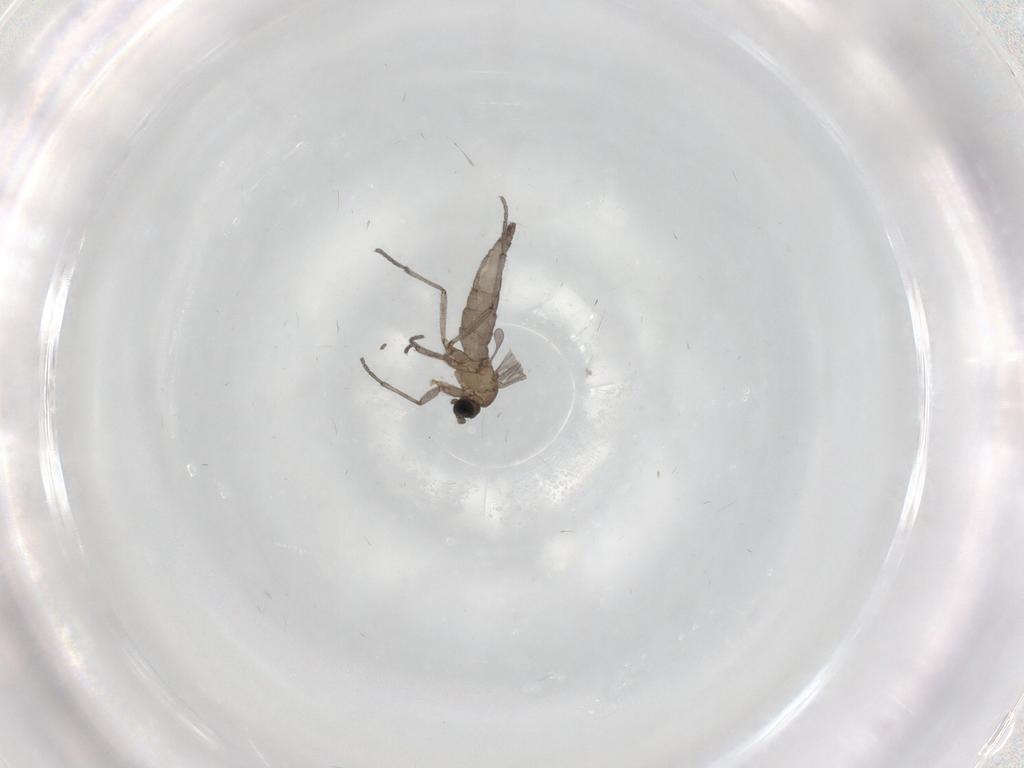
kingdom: Animalia
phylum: Arthropoda
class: Insecta
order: Diptera
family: Sciaridae
